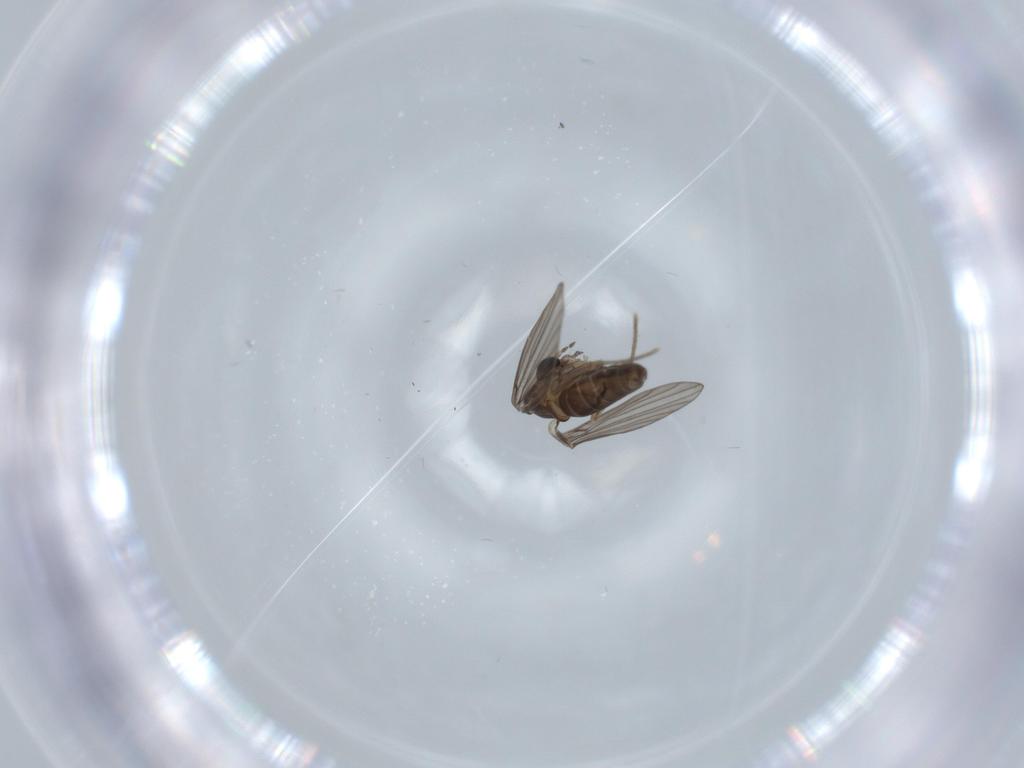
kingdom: Animalia
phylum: Arthropoda
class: Insecta
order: Diptera
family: Psychodidae
